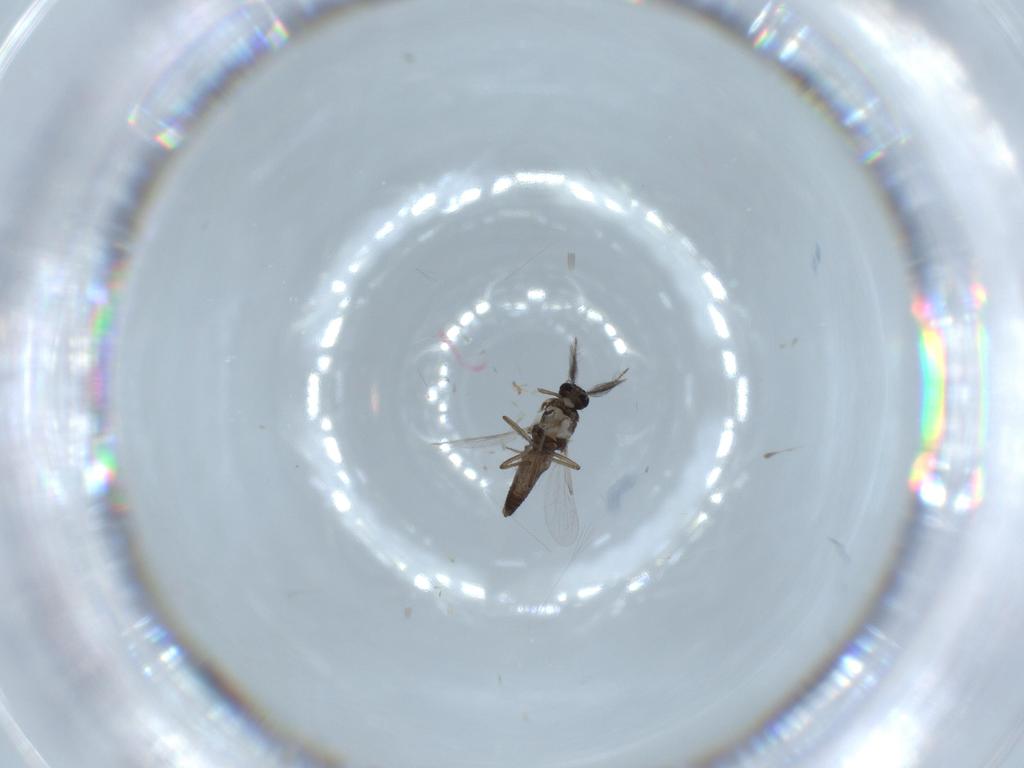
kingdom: Animalia
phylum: Arthropoda
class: Insecta
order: Diptera
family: Ceratopogonidae
